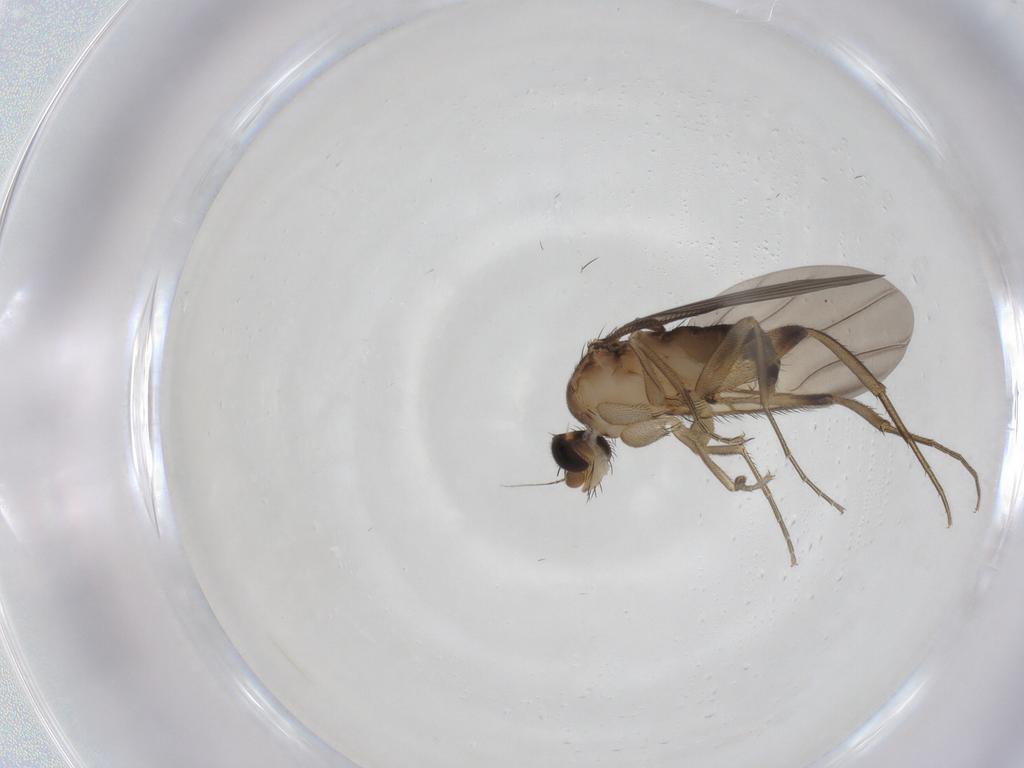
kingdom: Animalia
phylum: Arthropoda
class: Insecta
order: Diptera
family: Phoridae
